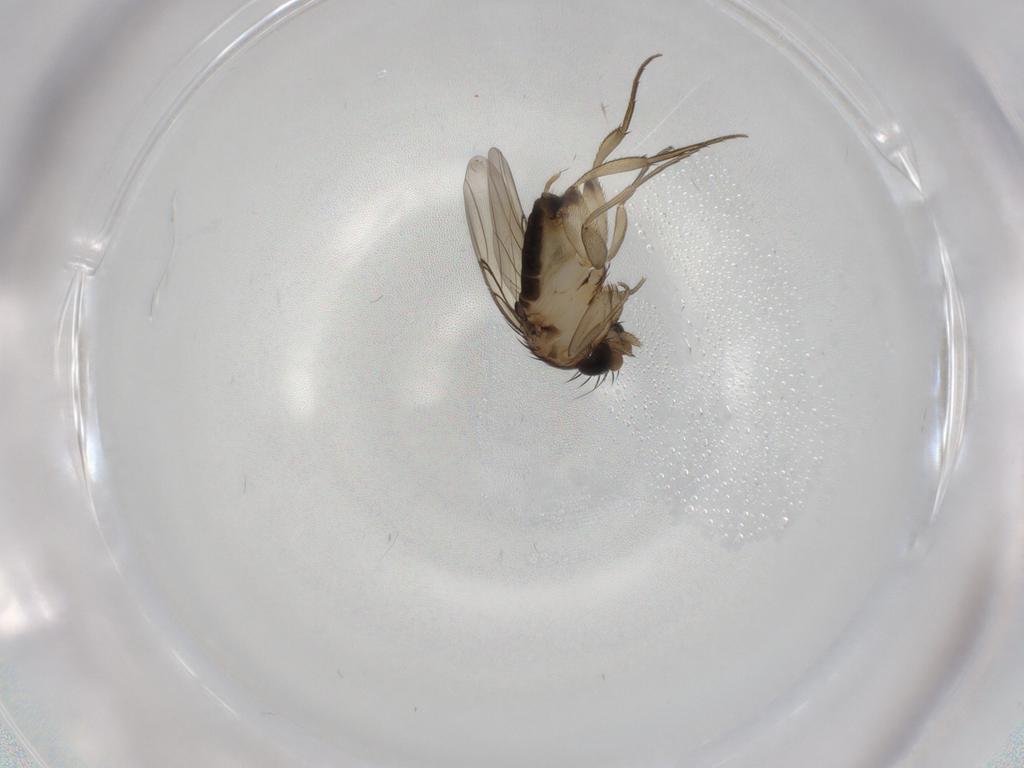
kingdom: Animalia
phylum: Arthropoda
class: Insecta
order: Diptera
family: Phoridae
